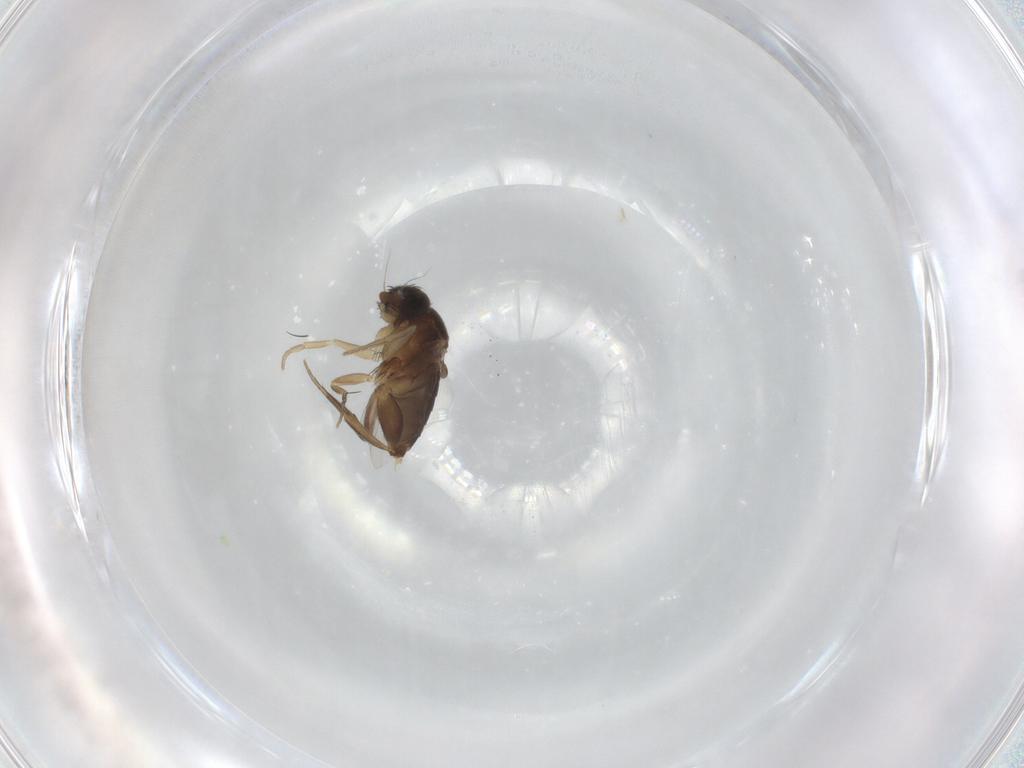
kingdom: Animalia
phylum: Arthropoda
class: Insecta
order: Diptera
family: Phoridae
